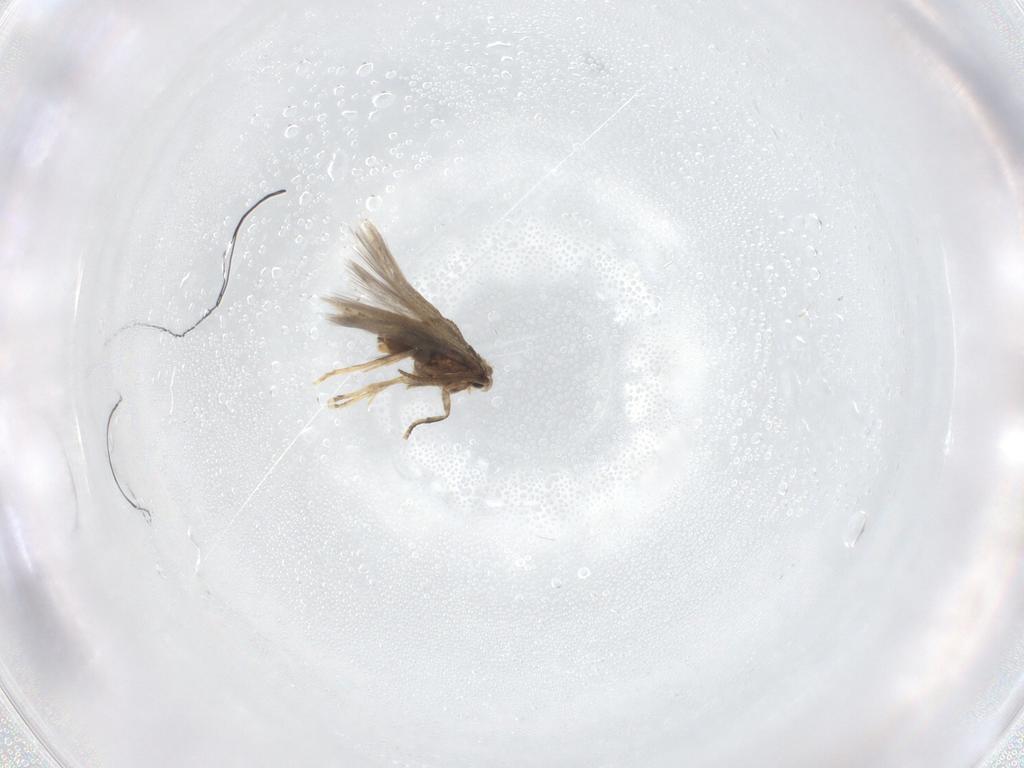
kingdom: Animalia
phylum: Arthropoda
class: Insecta
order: Lepidoptera
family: Nepticulidae
